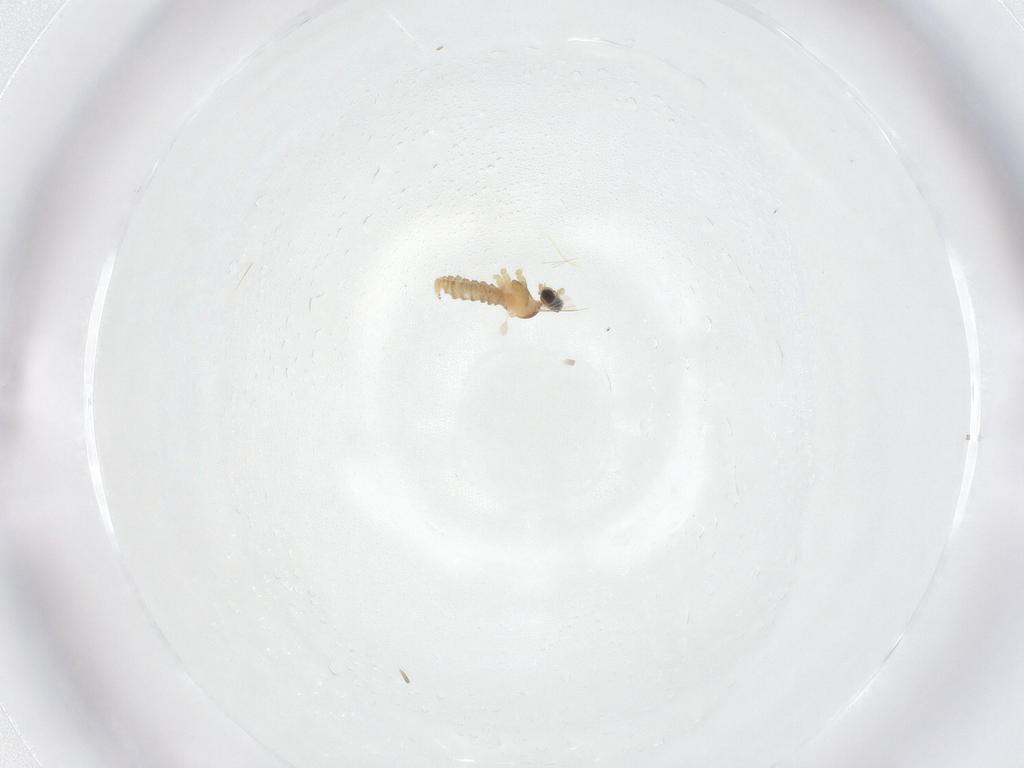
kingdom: Animalia
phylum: Arthropoda
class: Insecta
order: Diptera
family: Cecidomyiidae
